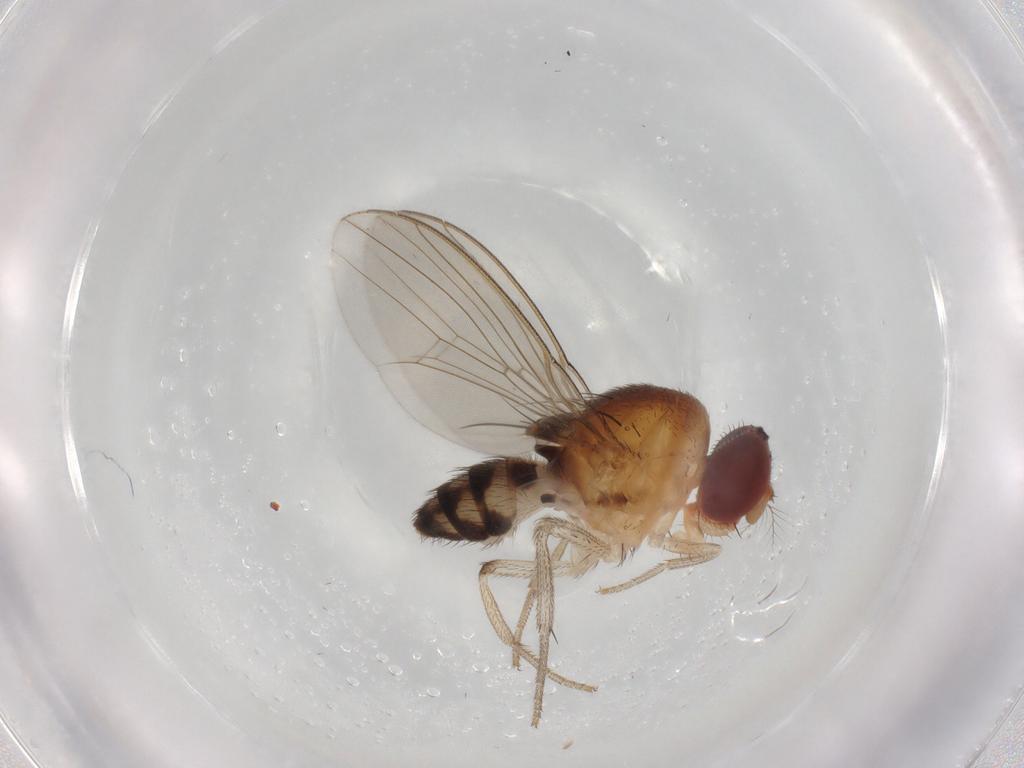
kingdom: Animalia
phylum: Arthropoda
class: Insecta
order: Diptera
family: Drosophilidae
